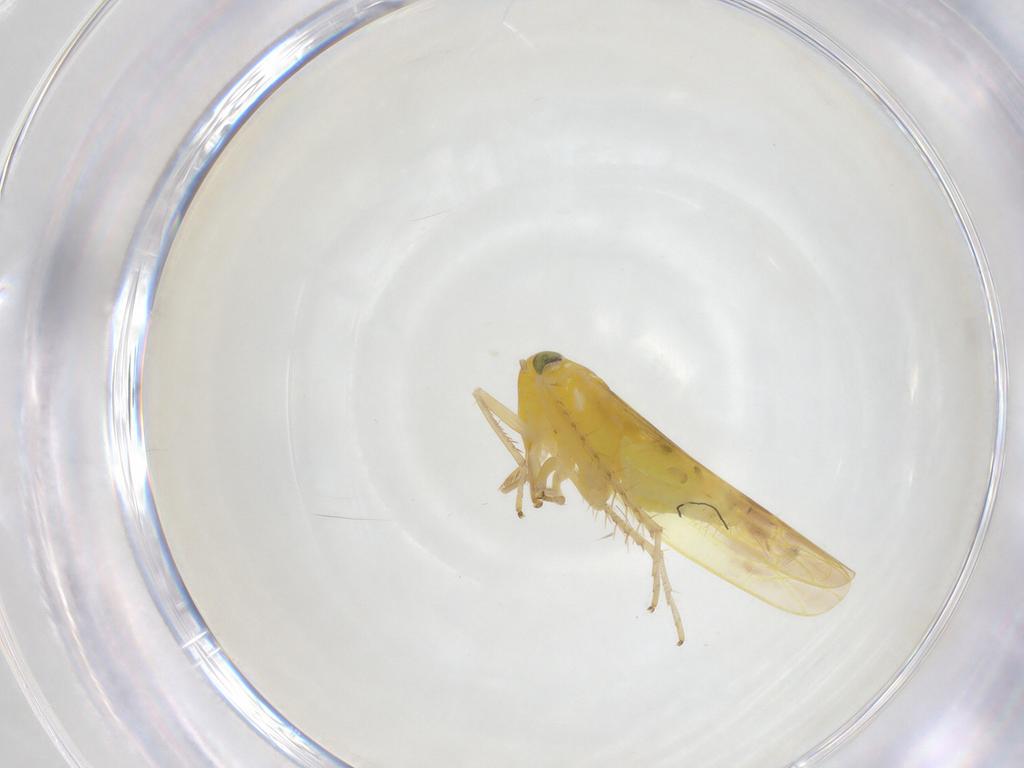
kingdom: Animalia
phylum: Arthropoda
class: Insecta
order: Hemiptera
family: Cicadellidae
